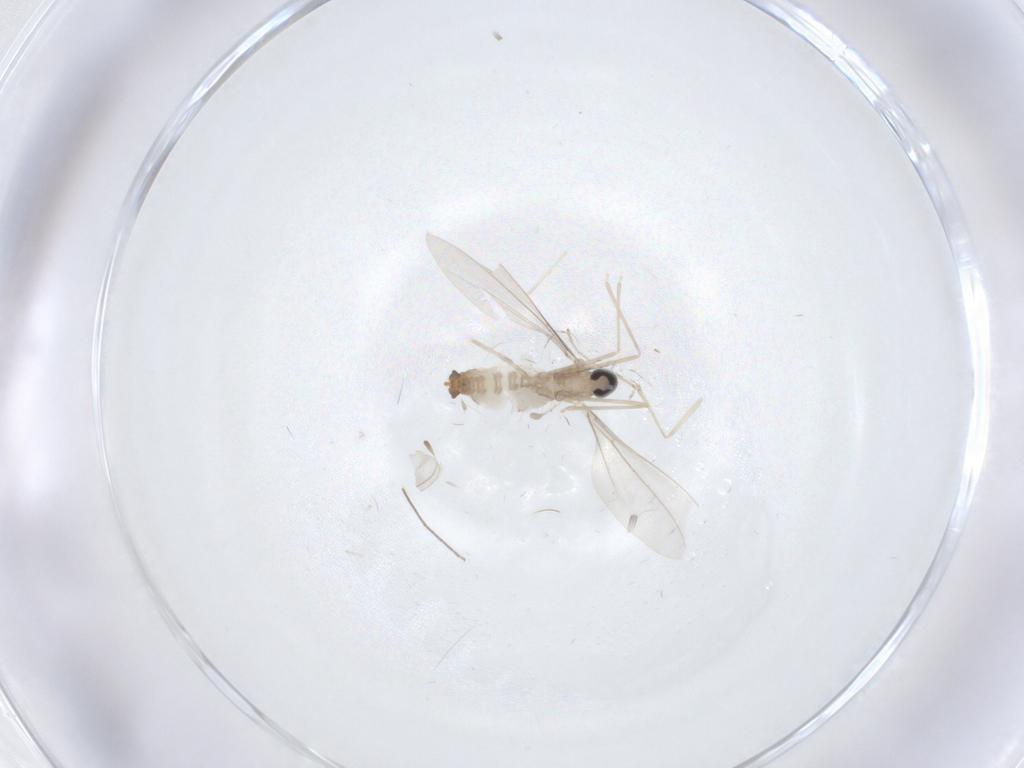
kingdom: Animalia
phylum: Arthropoda
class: Insecta
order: Diptera
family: Cecidomyiidae
